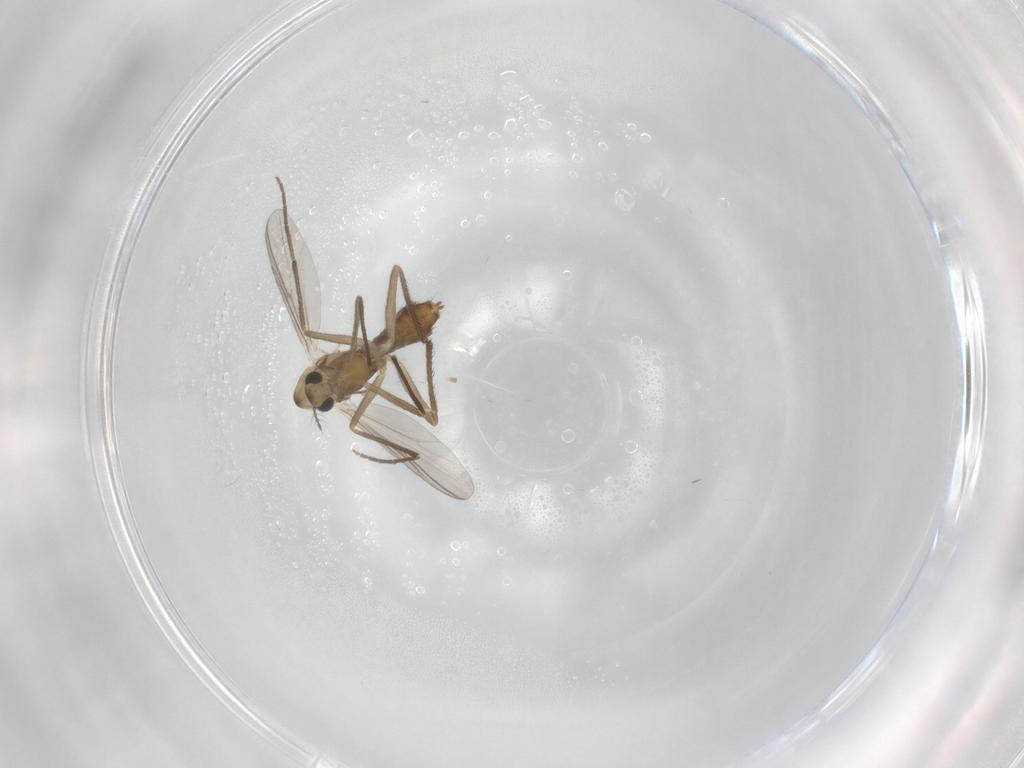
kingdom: Animalia
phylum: Arthropoda
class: Insecta
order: Diptera
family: Chironomidae
